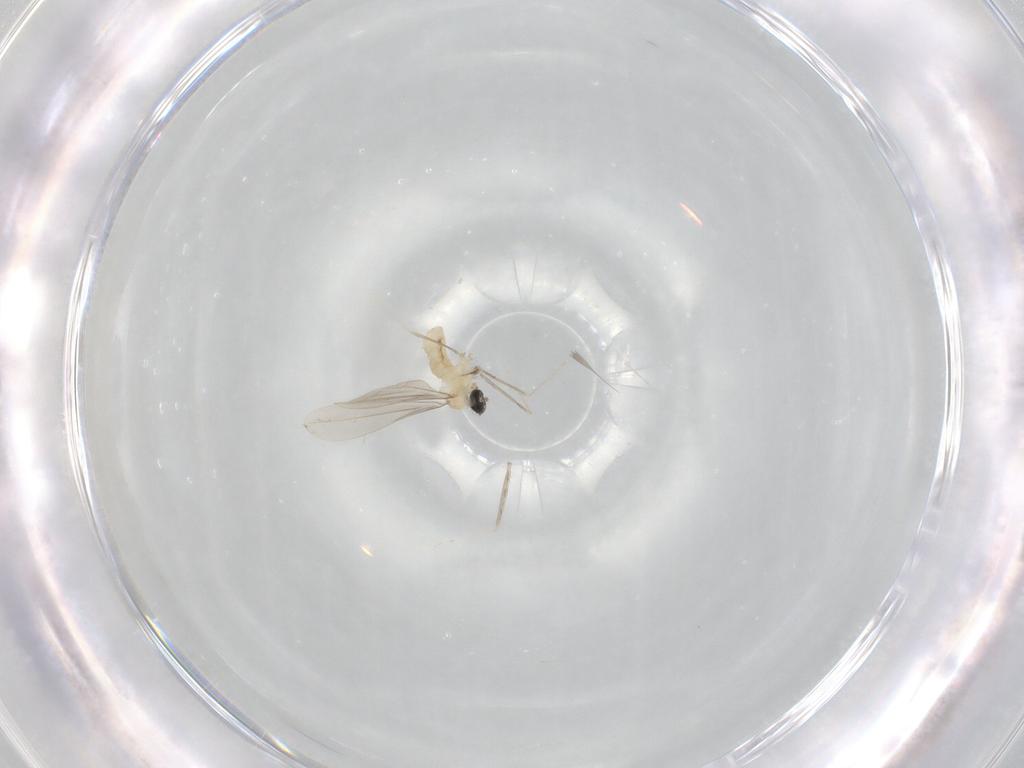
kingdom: Animalia
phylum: Arthropoda
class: Insecta
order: Diptera
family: Cecidomyiidae
